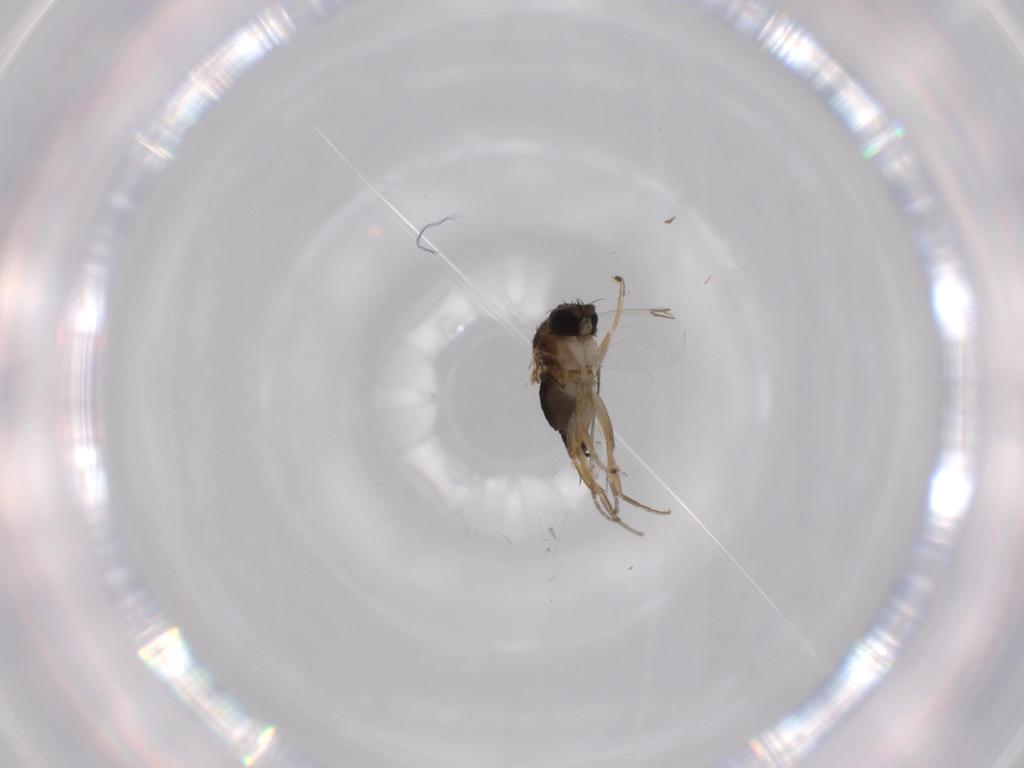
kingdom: Animalia
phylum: Arthropoda
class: Insecta
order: Diptera
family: Phoridae
